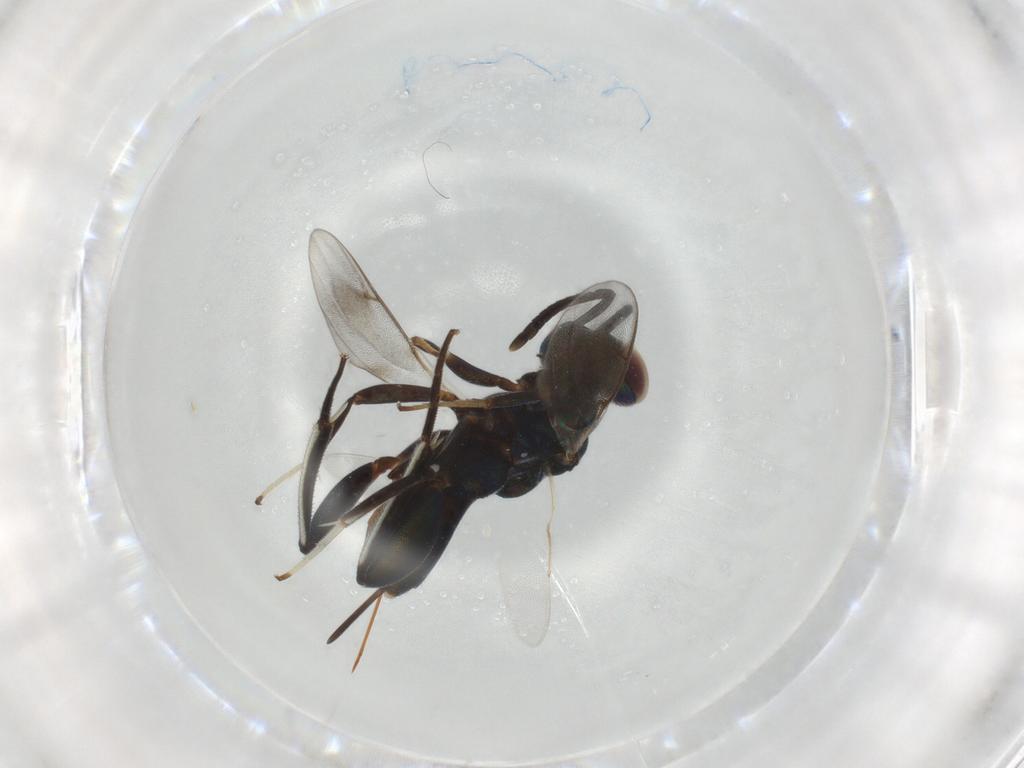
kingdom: Animalia
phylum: Arthropoda
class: Insecta
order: Hymenoptera
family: Eupelmidae
